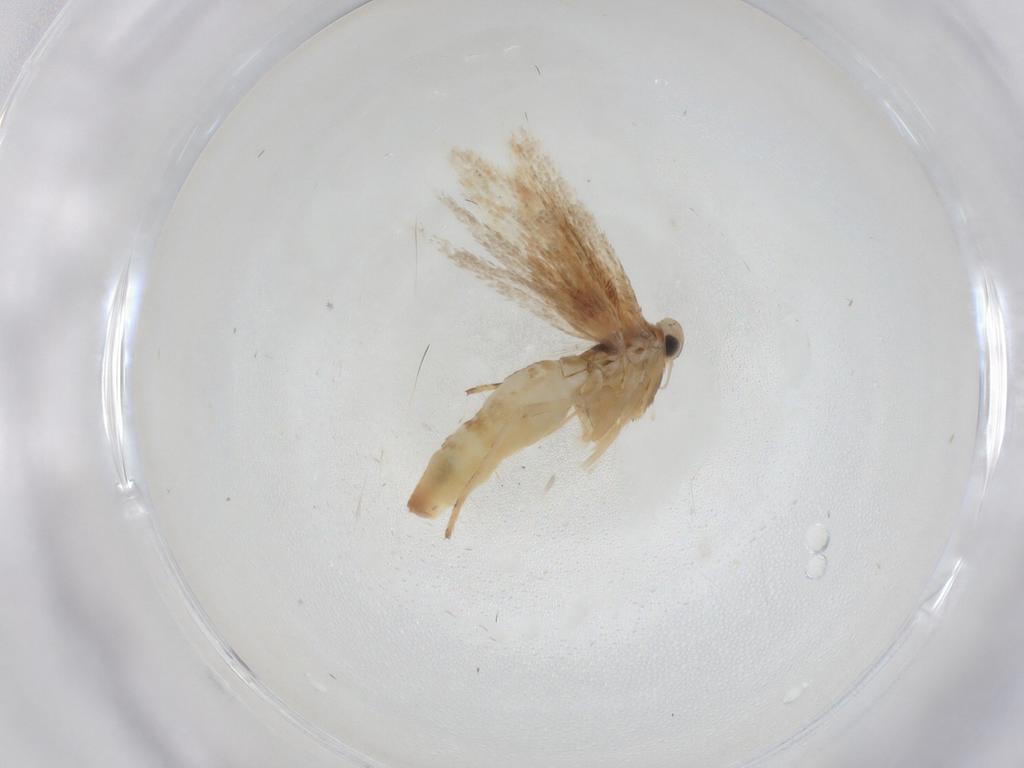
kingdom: Animalia
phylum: Arthropoda
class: Insecta
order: Lepidoptera
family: Gracillariidae
